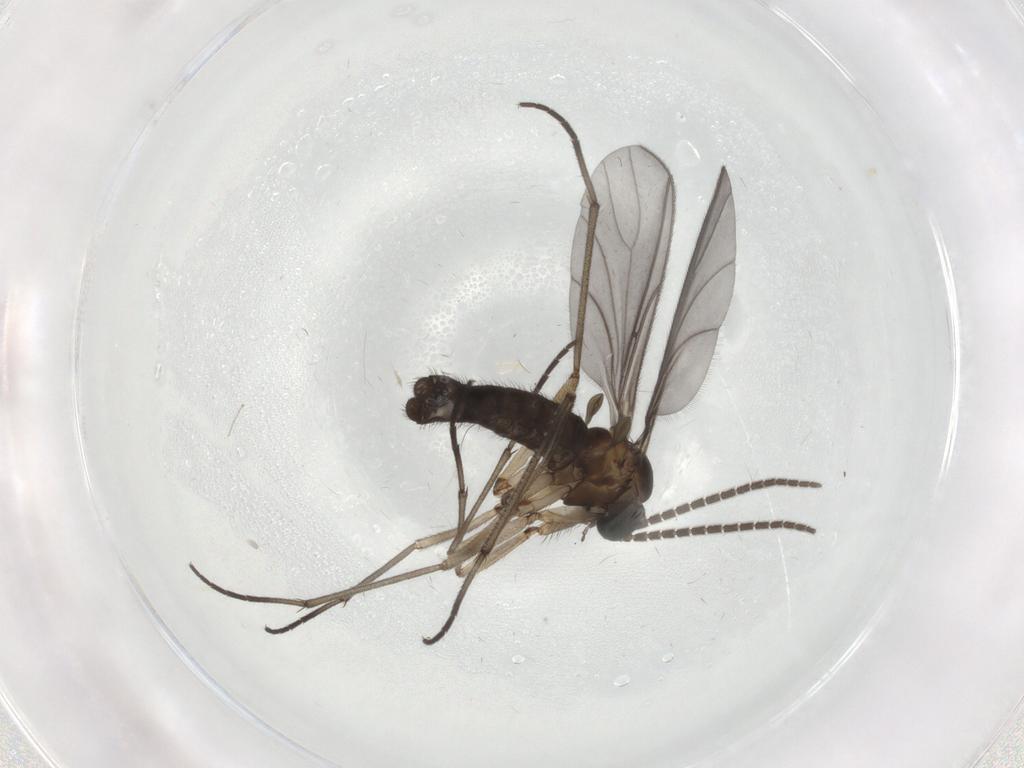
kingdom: Animalia
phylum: Arthropoda
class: Insecta
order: Diptera
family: Sciaridae
